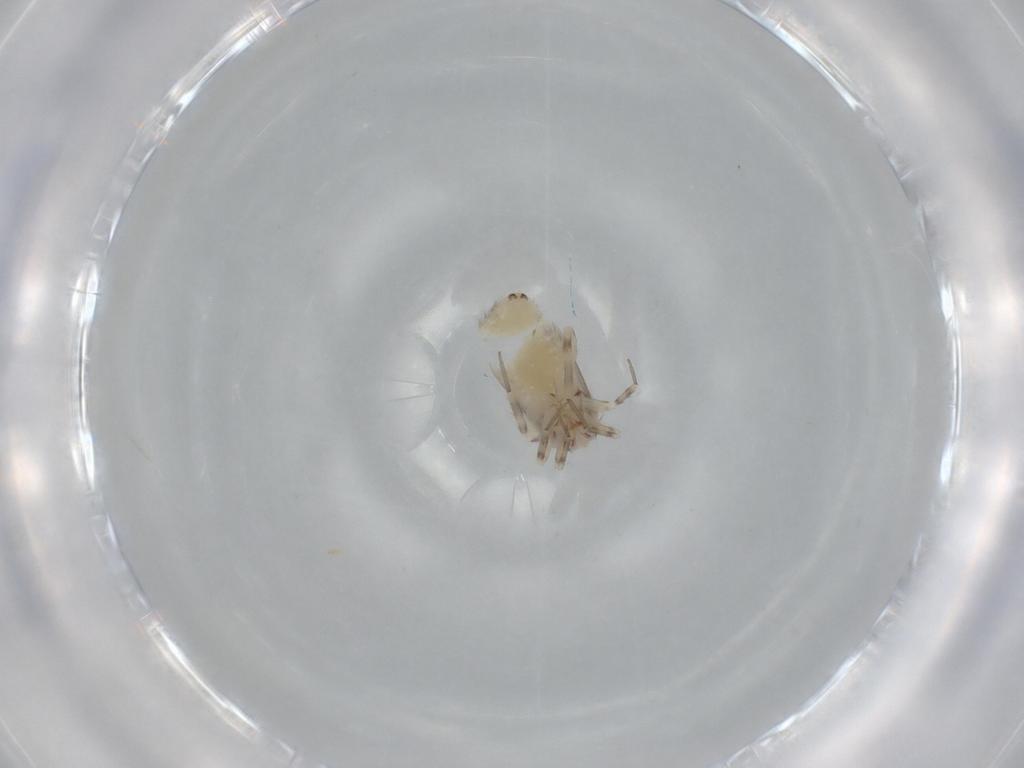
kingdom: Animalia
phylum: Arthropoda
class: Insecta
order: Psocodea
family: Lepidopsocidae
